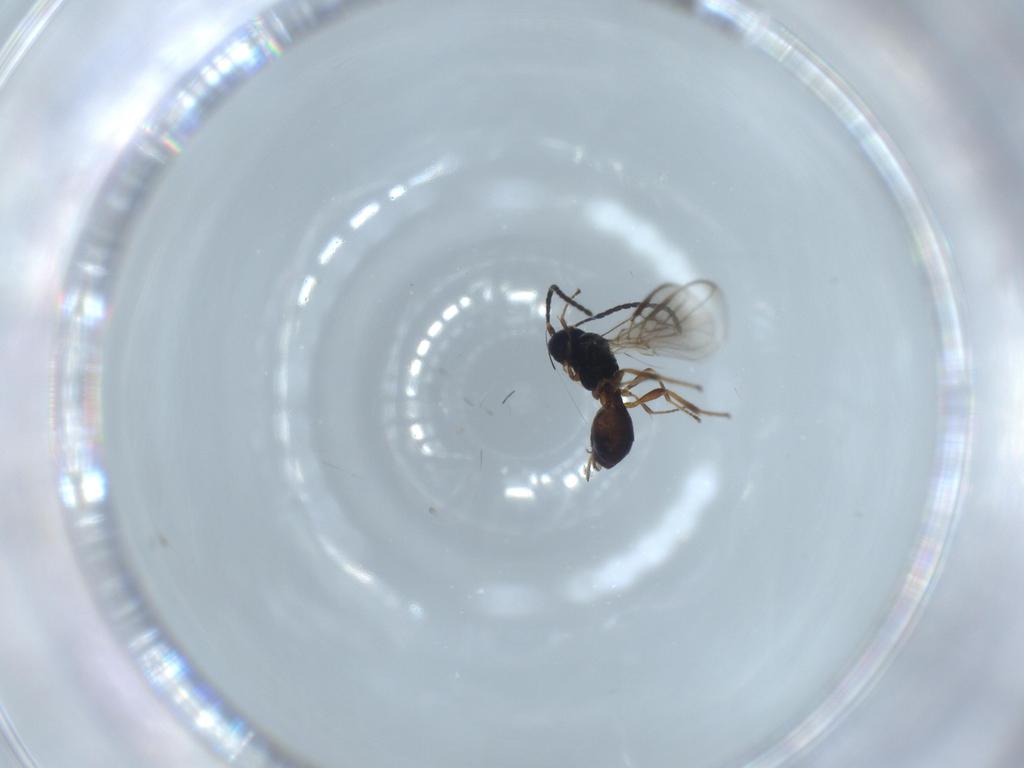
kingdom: Animalia
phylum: Arthropoda
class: Insecta
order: Hymenoptera
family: Braconidae
